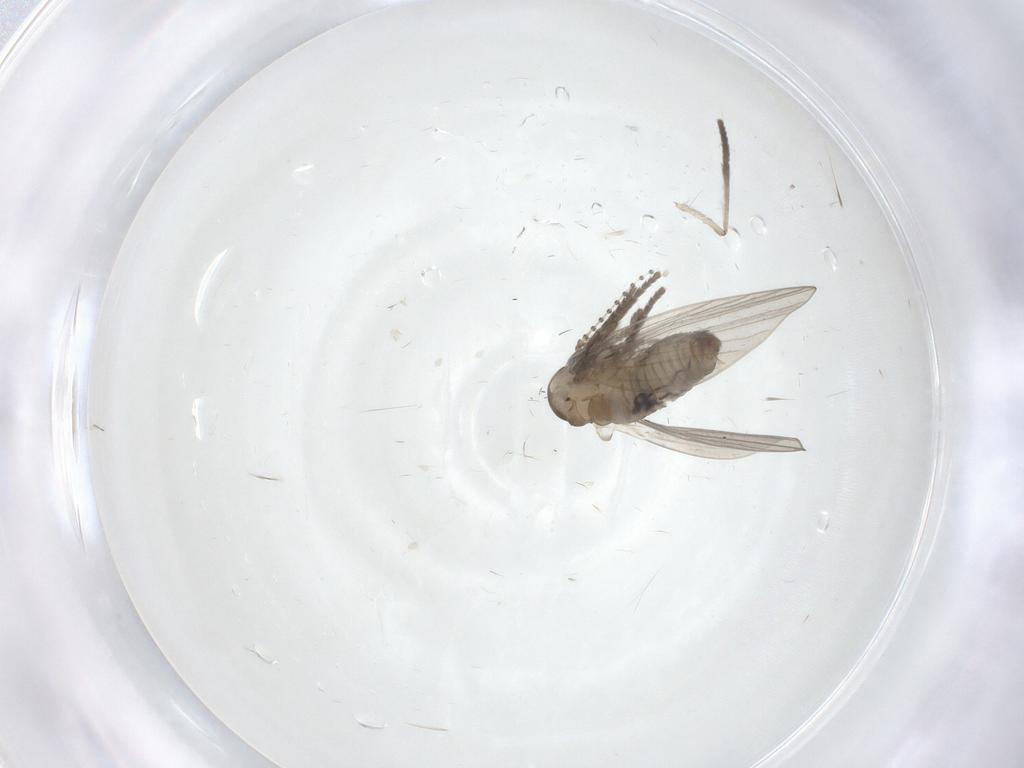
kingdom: Animalia
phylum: Arthropoda
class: Insecta
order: Diptera
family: Psychodidae
